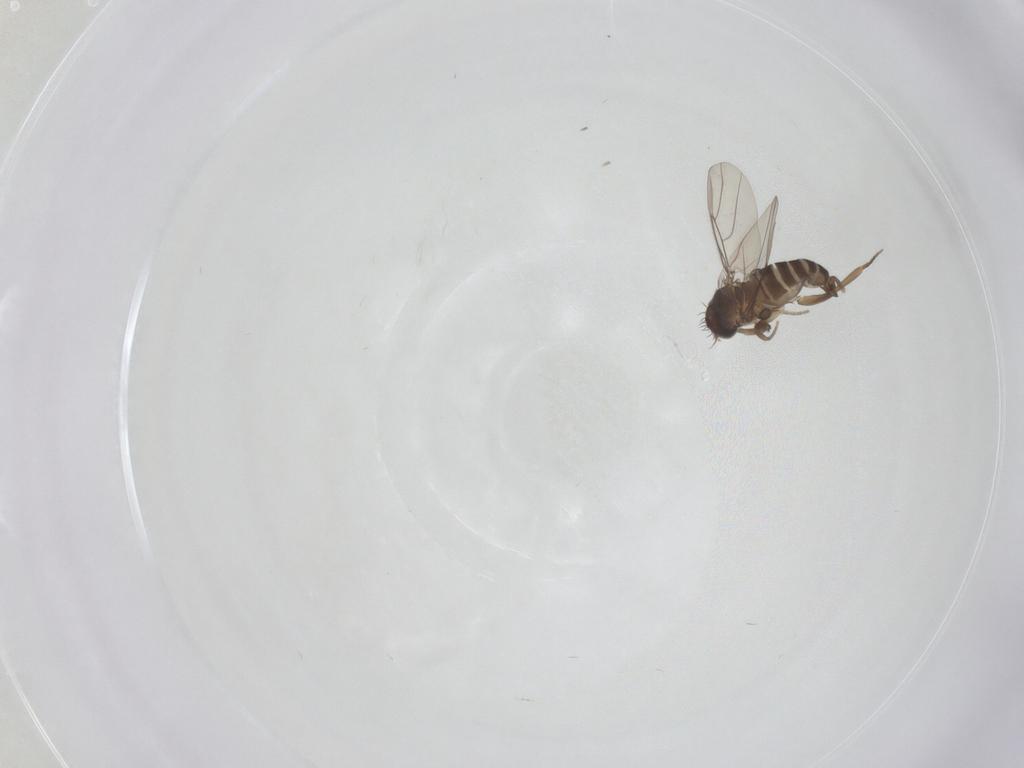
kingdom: Animalia
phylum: Arthropoda
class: Insecta
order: Diptera
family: Phoridae
